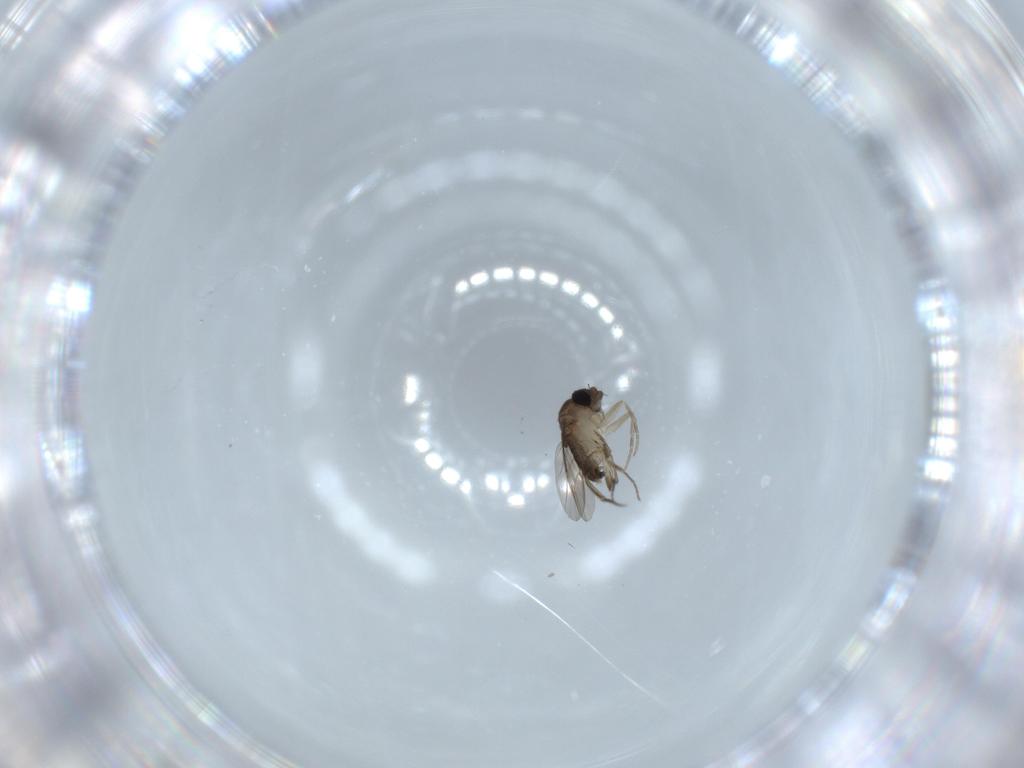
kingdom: Animalia
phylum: Arthropoda
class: Insecta
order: Diptera
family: Phoridae
